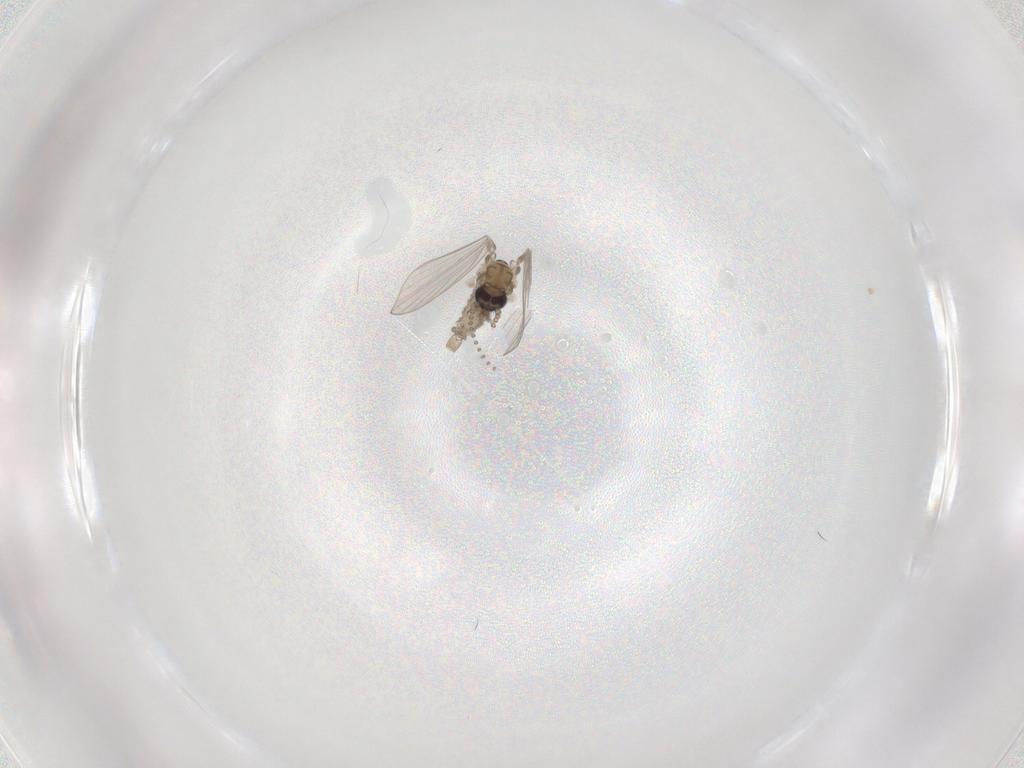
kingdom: Animalia
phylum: Arthropoda
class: Insecta
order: Diptera
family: Psychodidae
